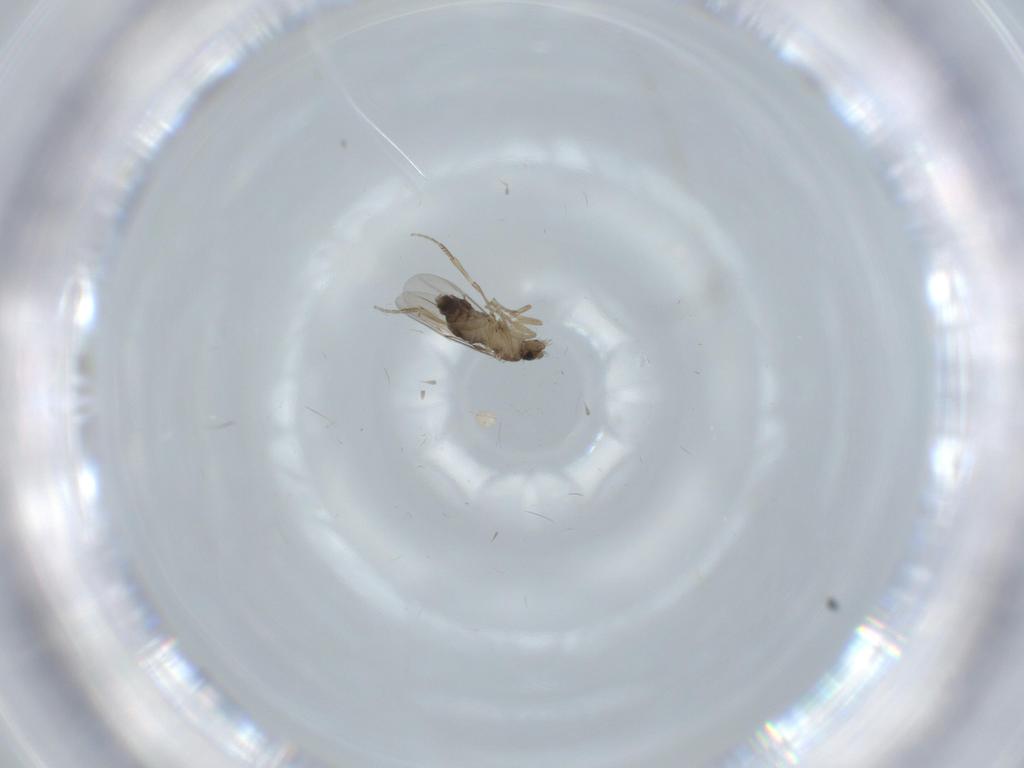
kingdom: Animalia
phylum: Arthropoda
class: Insecta
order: Diptera
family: Phoridae
